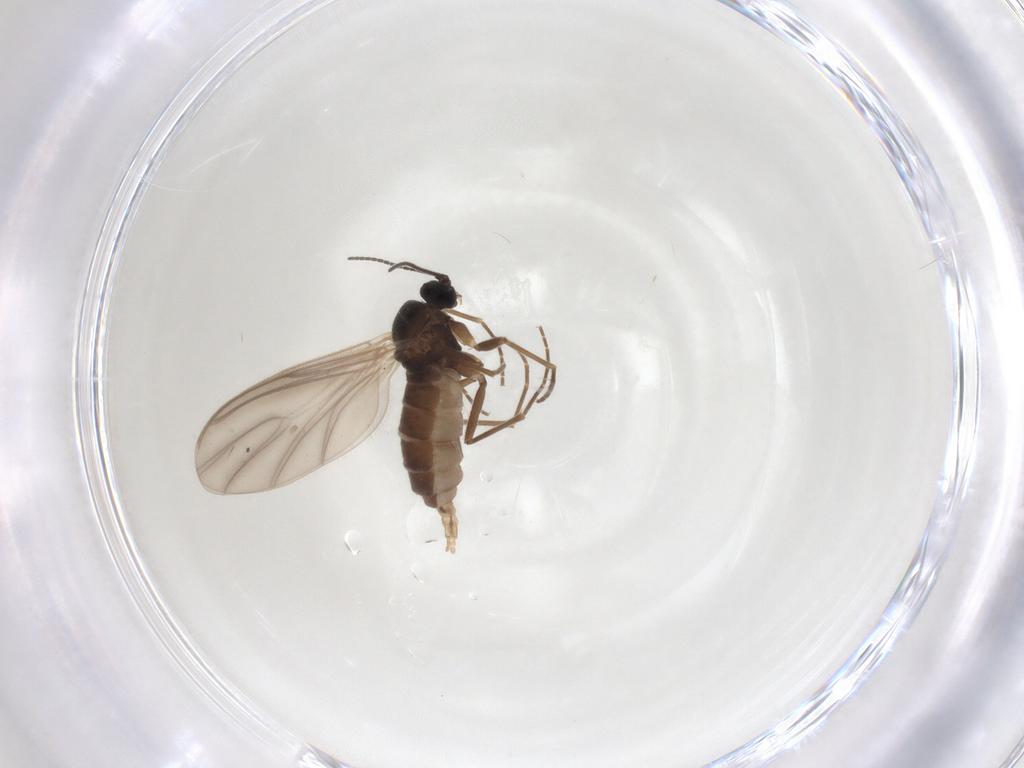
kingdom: Animalia
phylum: Arthropoda
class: Insecta
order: Diptera
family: Sciaridae
